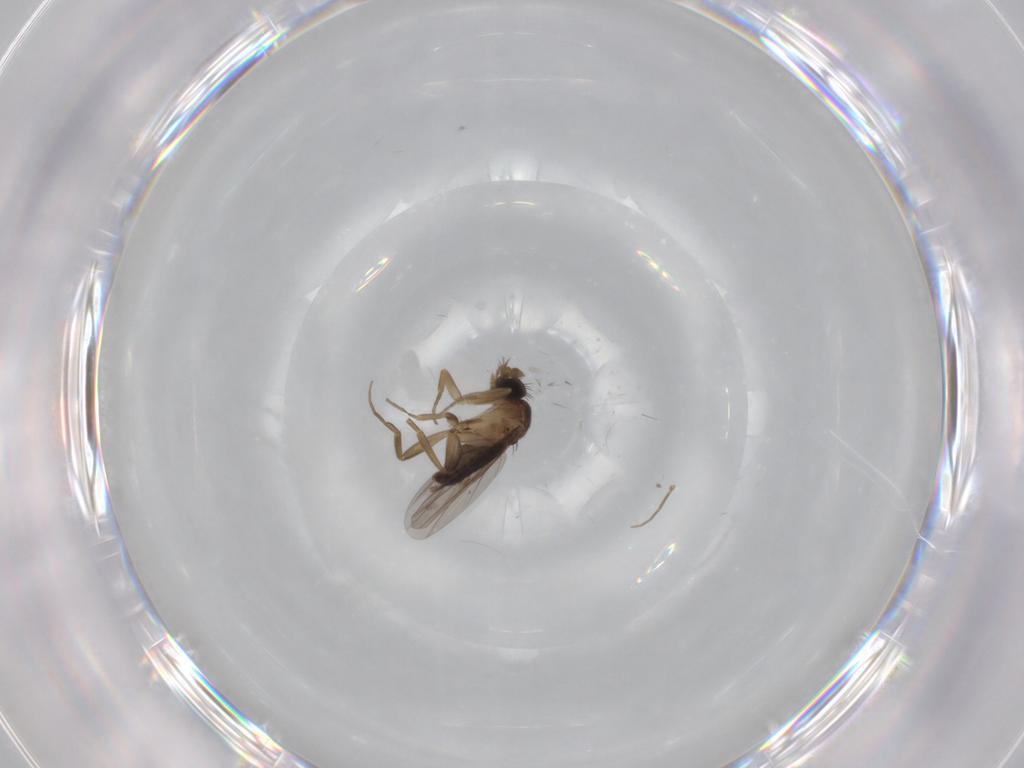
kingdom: Animalia
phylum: Arthropoda
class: Insecta
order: Diptera
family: Phoridae
